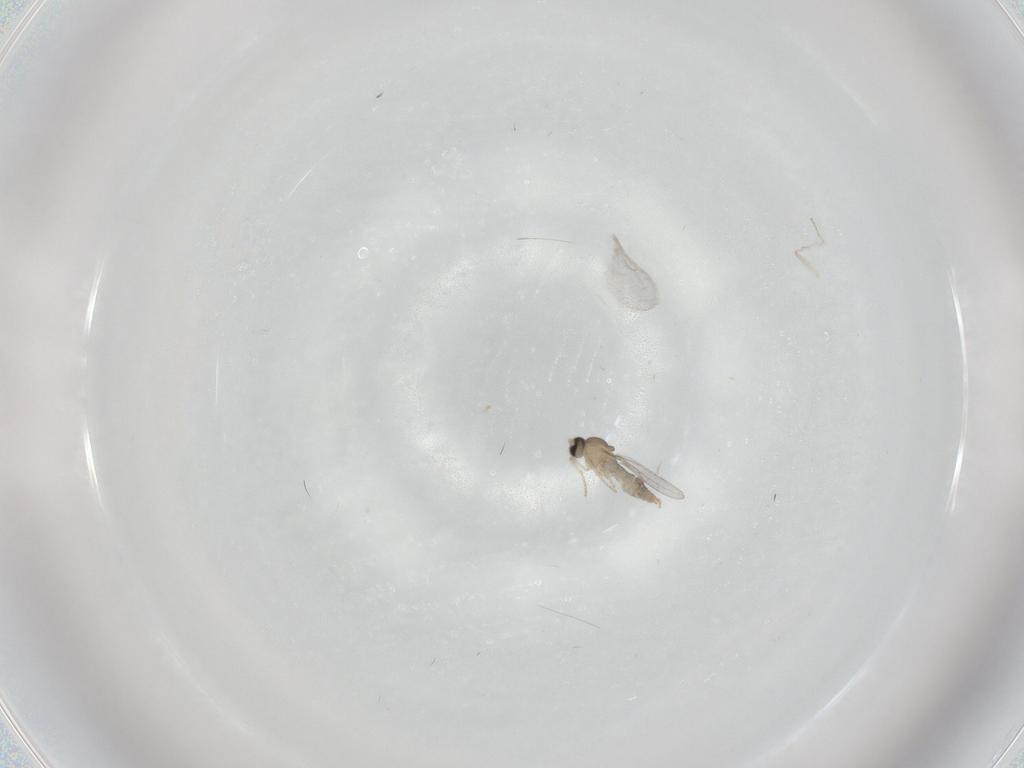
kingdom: Animalia
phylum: Arthropoda
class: Insecta
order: Diptera
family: Cecidomyiidae
